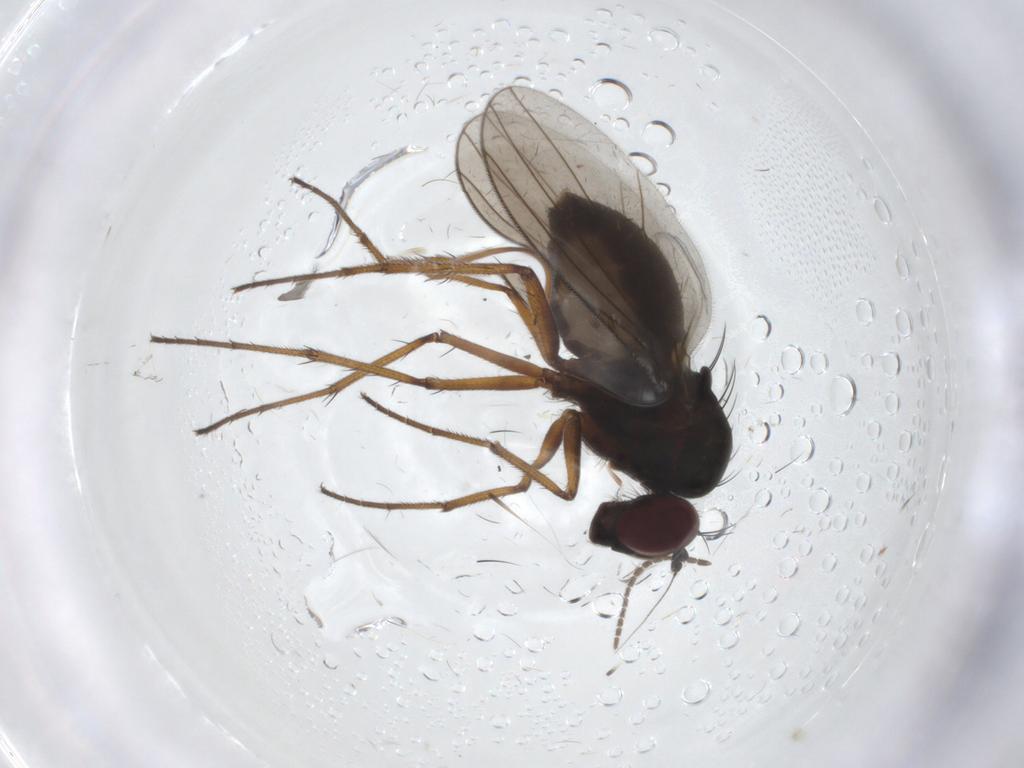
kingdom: Animalia
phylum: Arthropoda
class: Insecta
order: Diptera
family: Dolichopodidae
